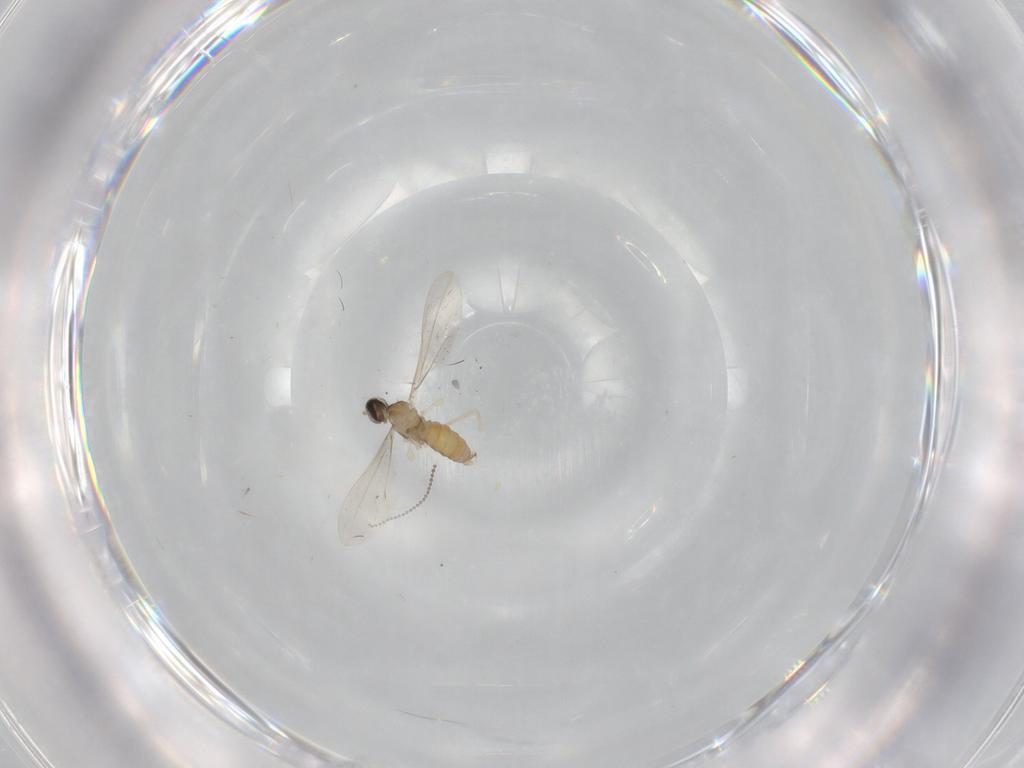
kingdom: Animalia
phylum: Arthropoda
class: Insecta
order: Diptera
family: Cecidomyiidae
